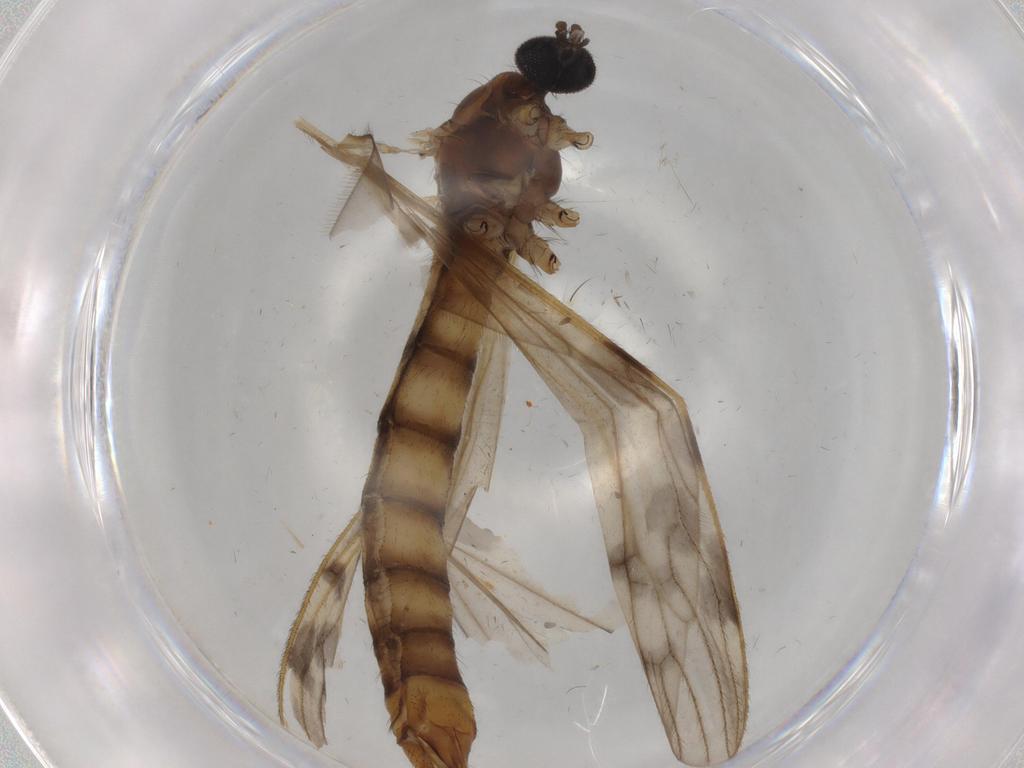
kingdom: Animalia
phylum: Arthropoda
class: Insecta
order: Diptera
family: Limoniidae
